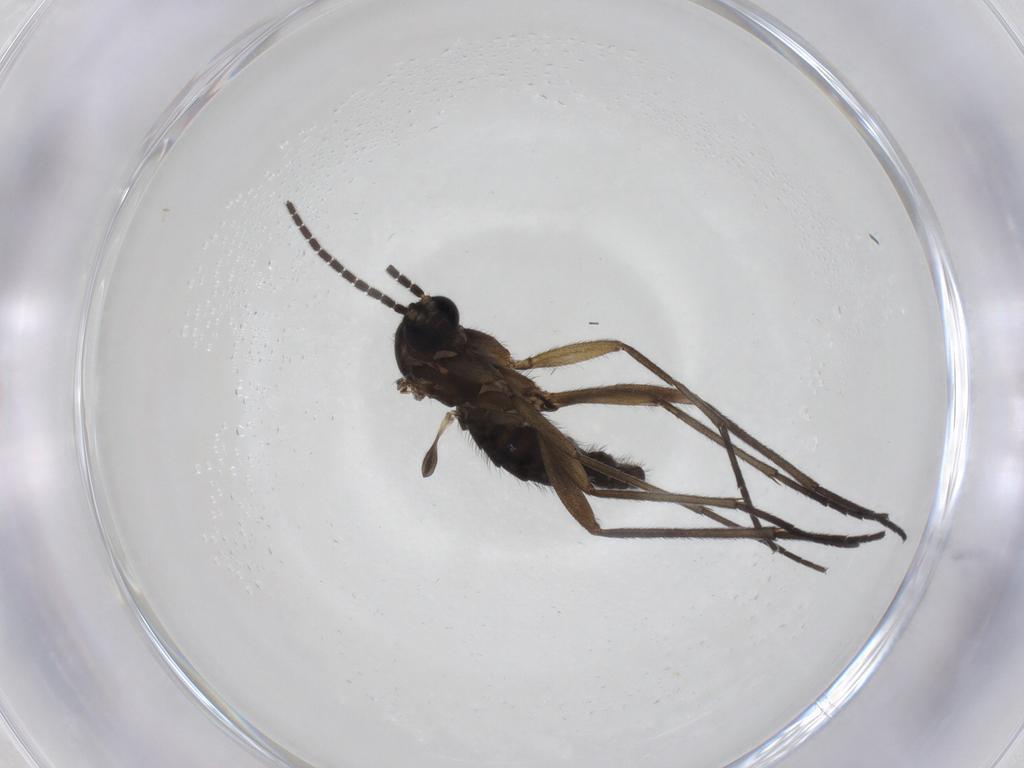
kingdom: Animalia
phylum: Arthropoda
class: Insecta
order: Diptera
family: Sciaridae
